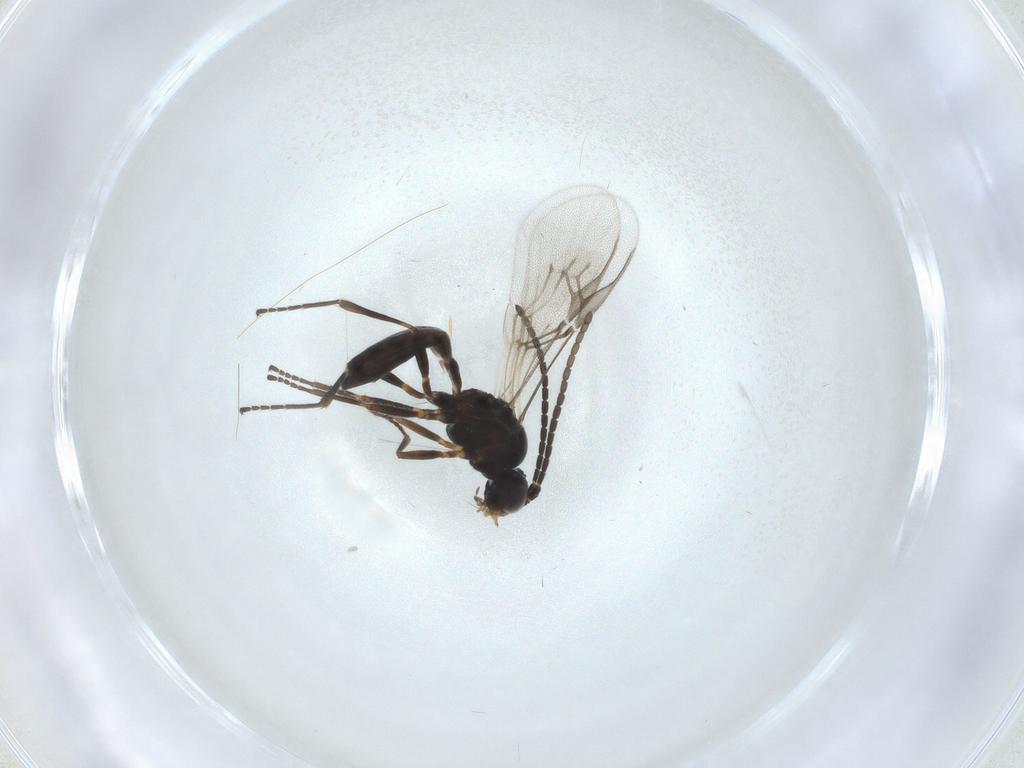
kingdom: Animalia
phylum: Arthropoda
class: Insecta
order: Hymenoptera
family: Braconidae
